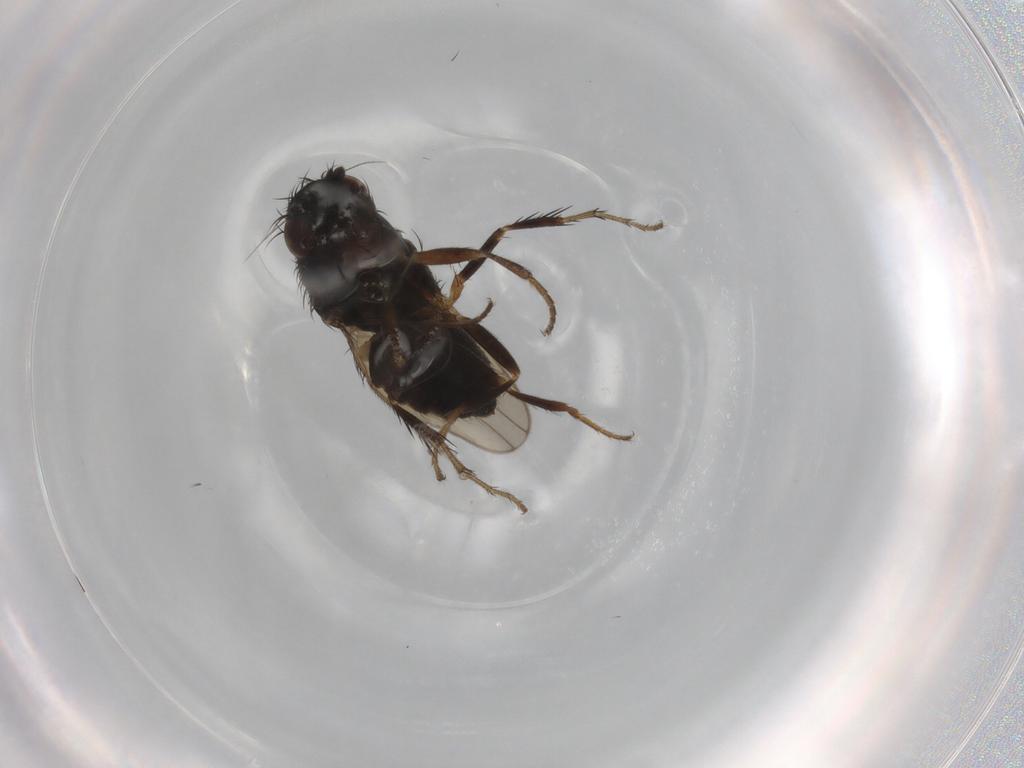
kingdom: Animalia
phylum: Arthropoda
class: Insecta
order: Diptera
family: Sphaeroceridae
